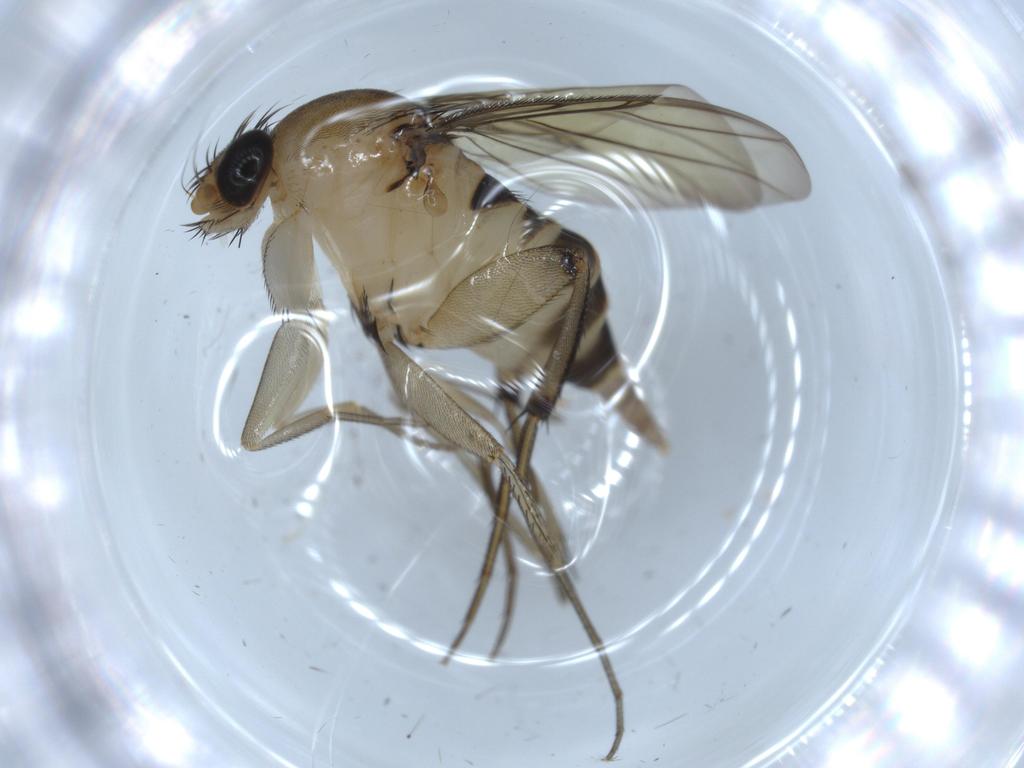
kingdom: Animalia
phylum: Arthropoda
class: Insecta
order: Diptera
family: Phoridae
